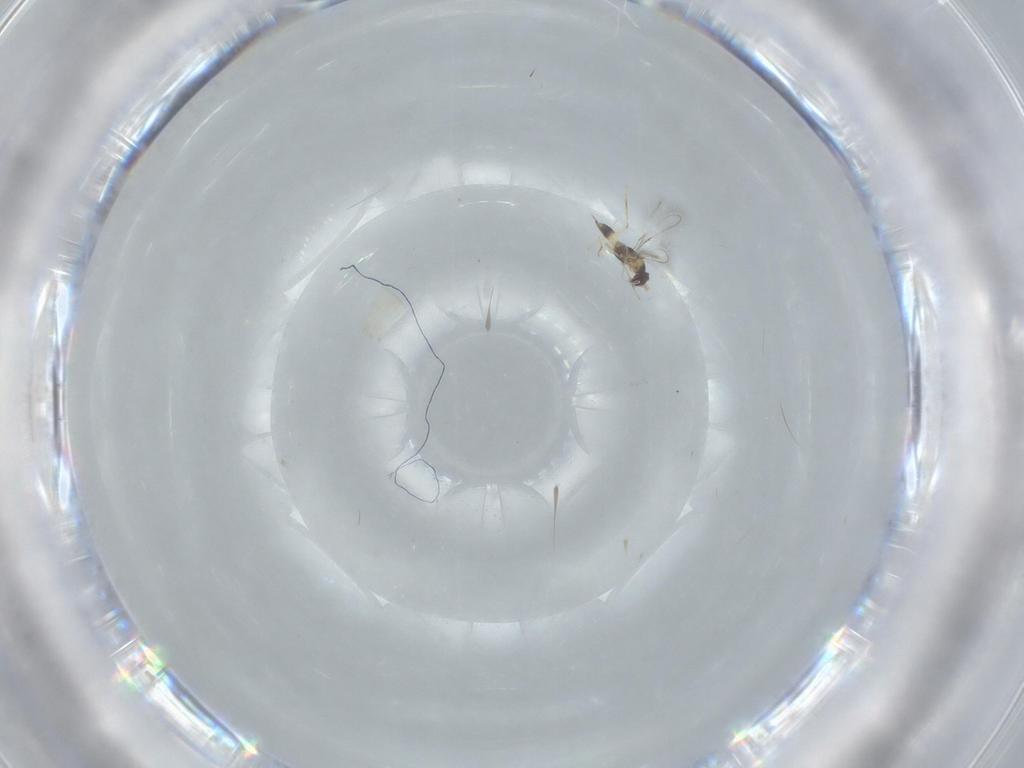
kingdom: Animalia
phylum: Arthropoda
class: Insecta
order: Hymenoptera
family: Mymaridae
